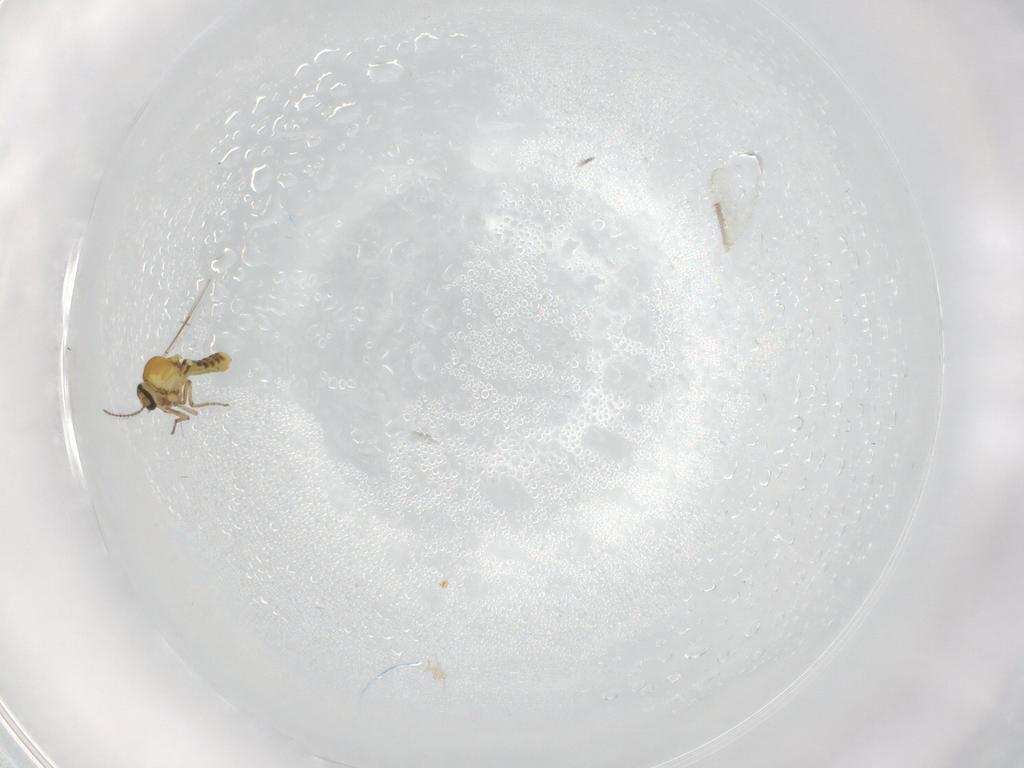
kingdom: Animalia
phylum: Arthropoda
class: Insecta
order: Diptera
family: Ceratopogonidae
